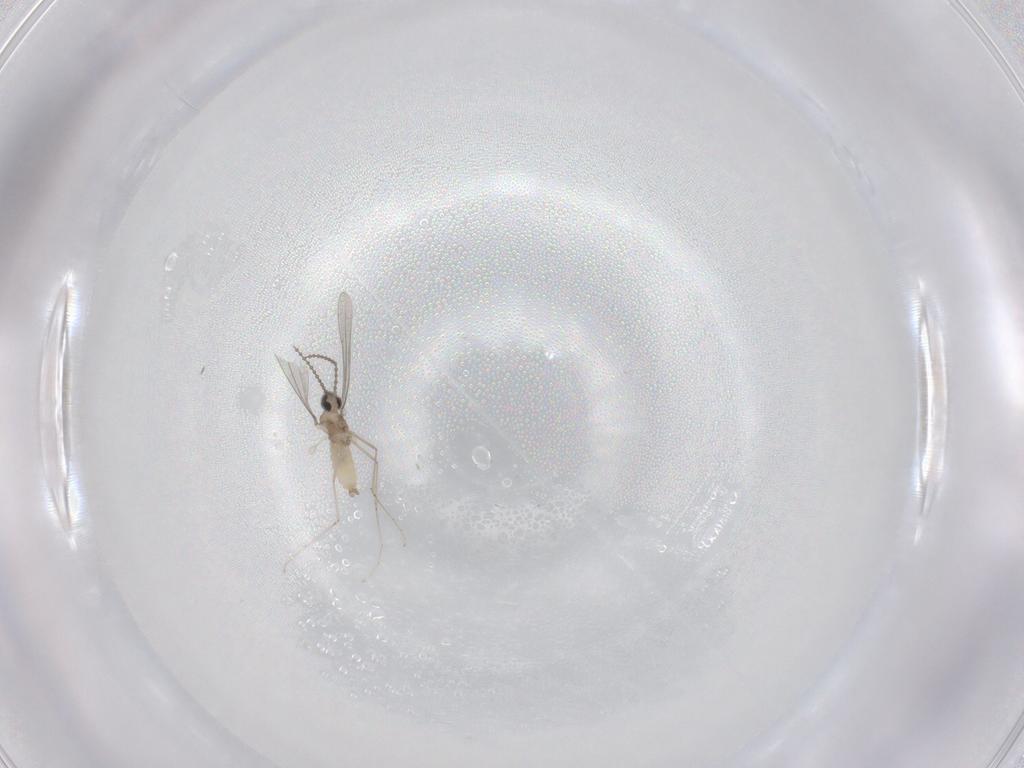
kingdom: Animalia
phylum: Arthropoda
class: Insecta
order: Diptera
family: Cecidomyiidae
